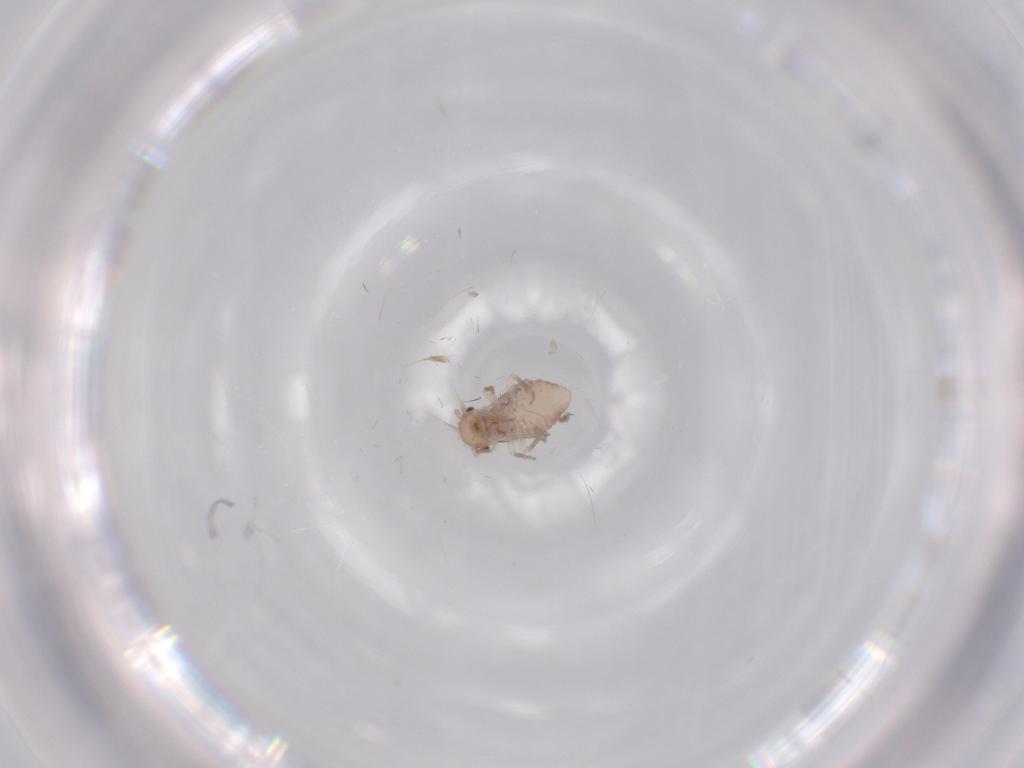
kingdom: Animalia
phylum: Arthropoda
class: Insecta
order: Psocodea
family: Ectopsocidae
